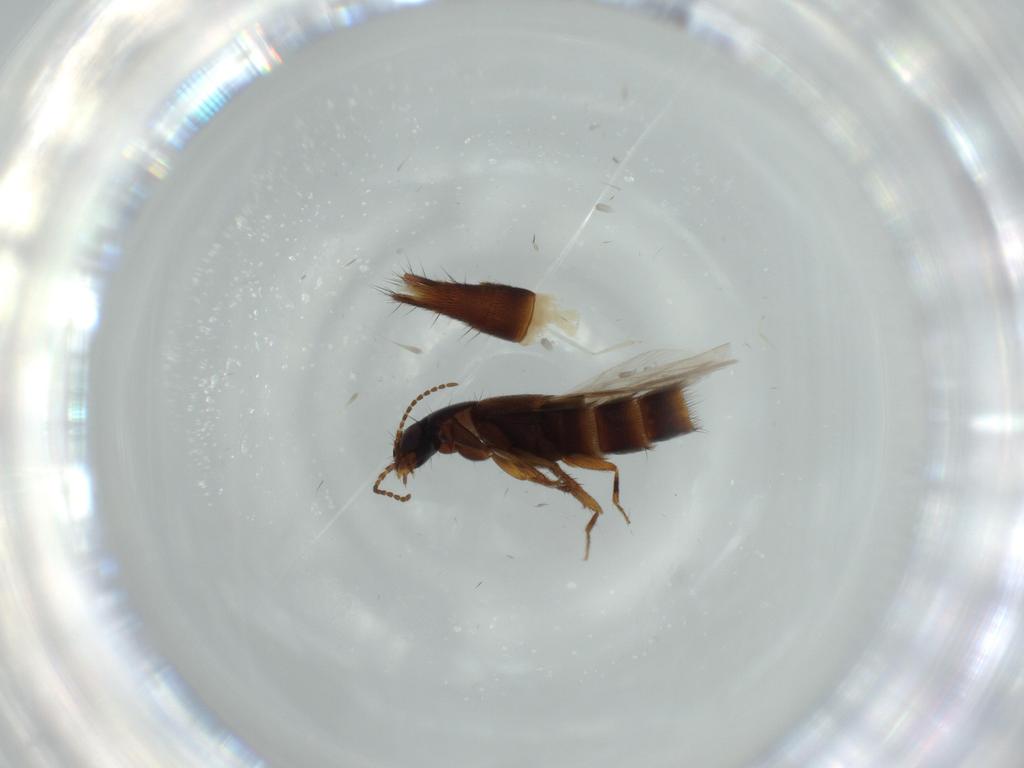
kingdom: Animalia
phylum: Arthropoda
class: Insecta
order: Coleoptera
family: Staphylinidae
